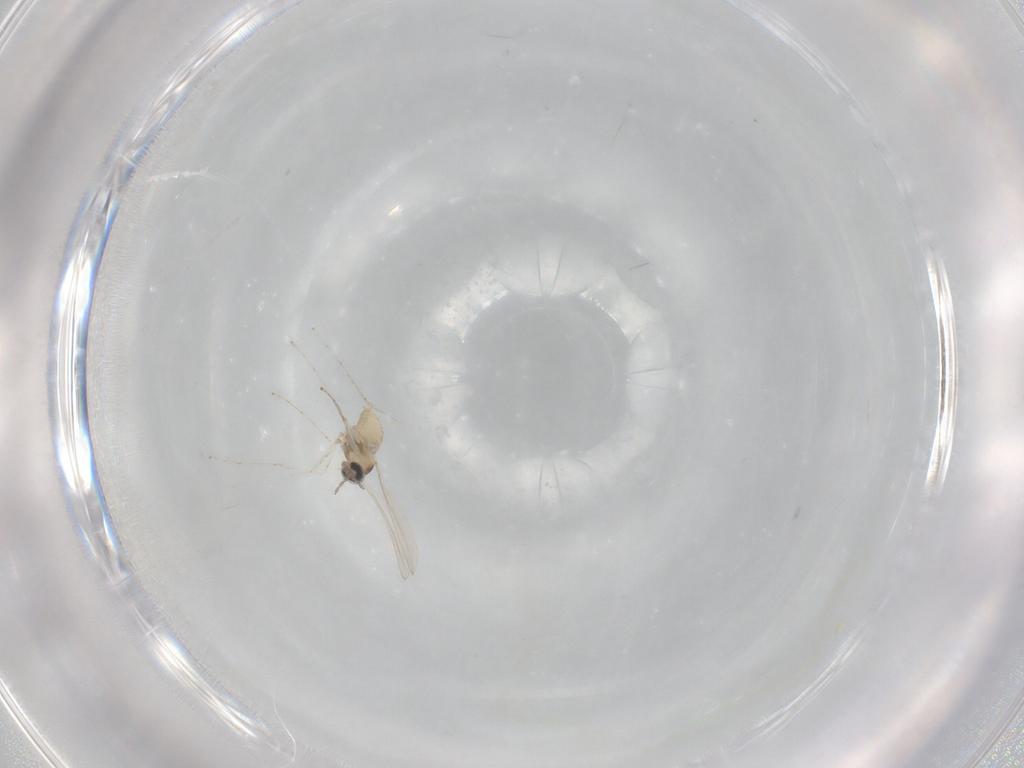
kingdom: Animalia
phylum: Arthropoda
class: Insecta
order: Diptera
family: Cecidomyiidae
